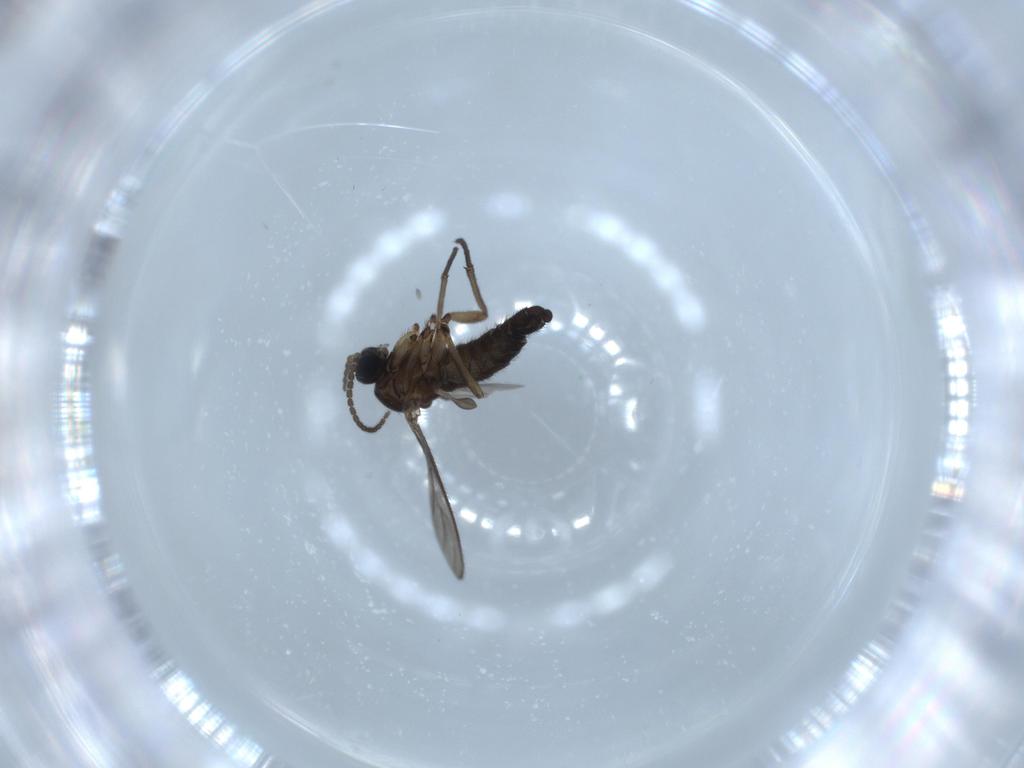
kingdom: Animalia
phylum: Arthropoda
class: Insecta
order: Diptera
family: Sciaridae
